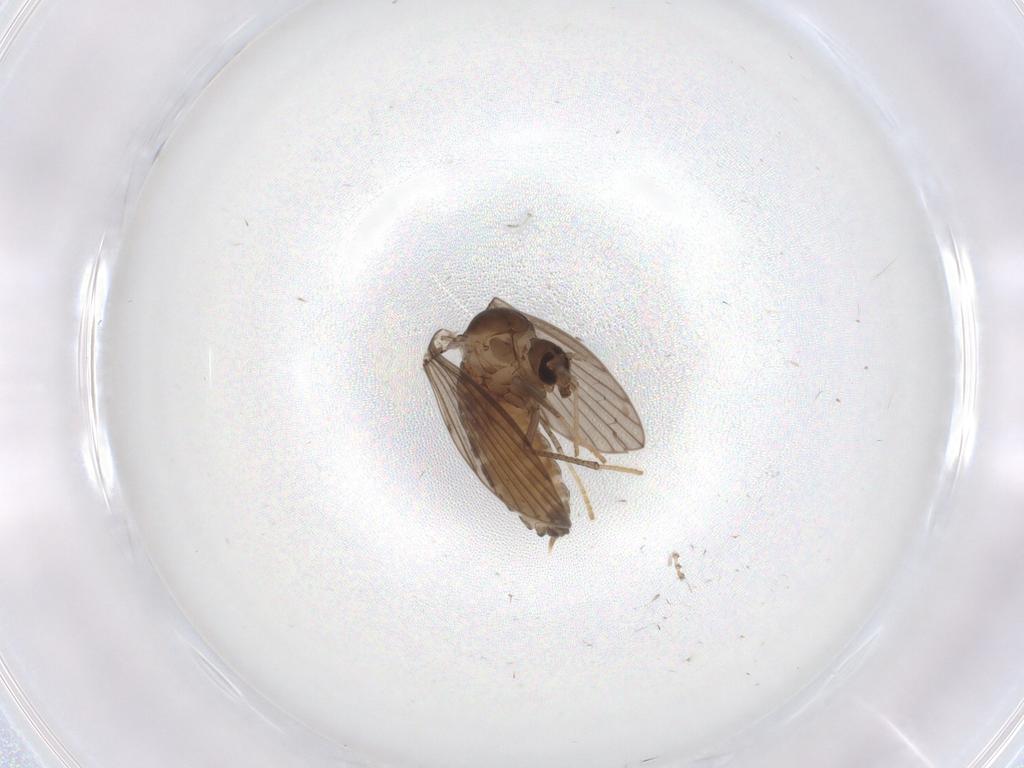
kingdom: Animalia
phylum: Arthropoda
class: Insecta
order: Diptera
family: Psychodidae
